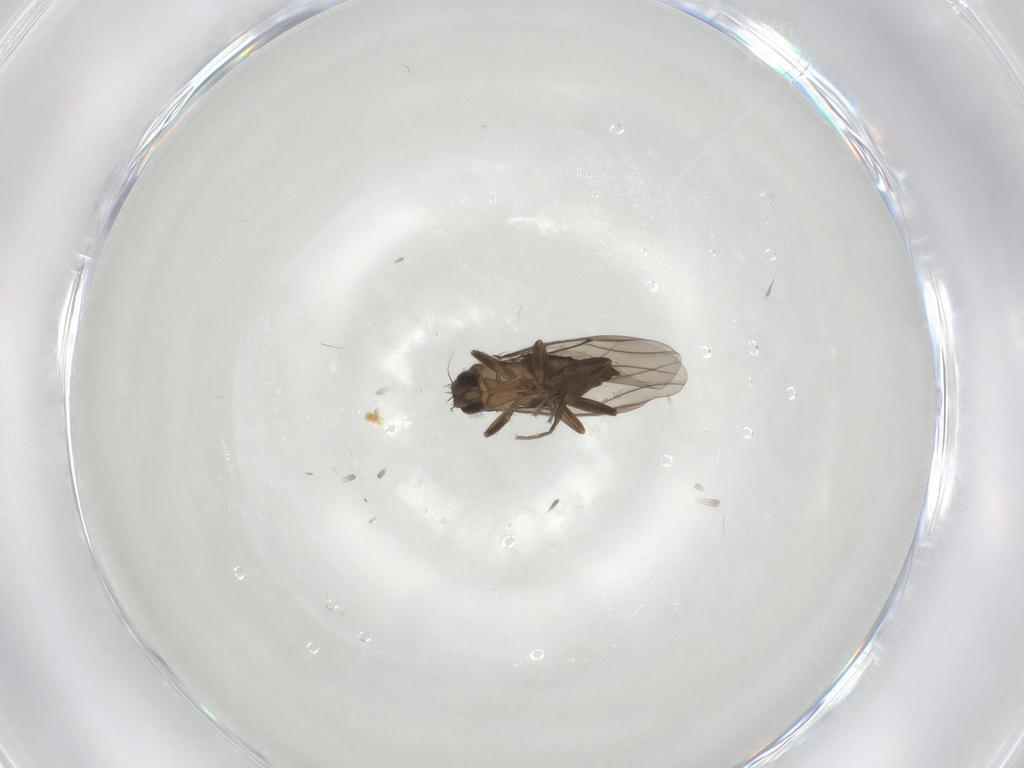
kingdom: Animalia
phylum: Arthropoda
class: Insecta
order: Diptera
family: Phoridae
